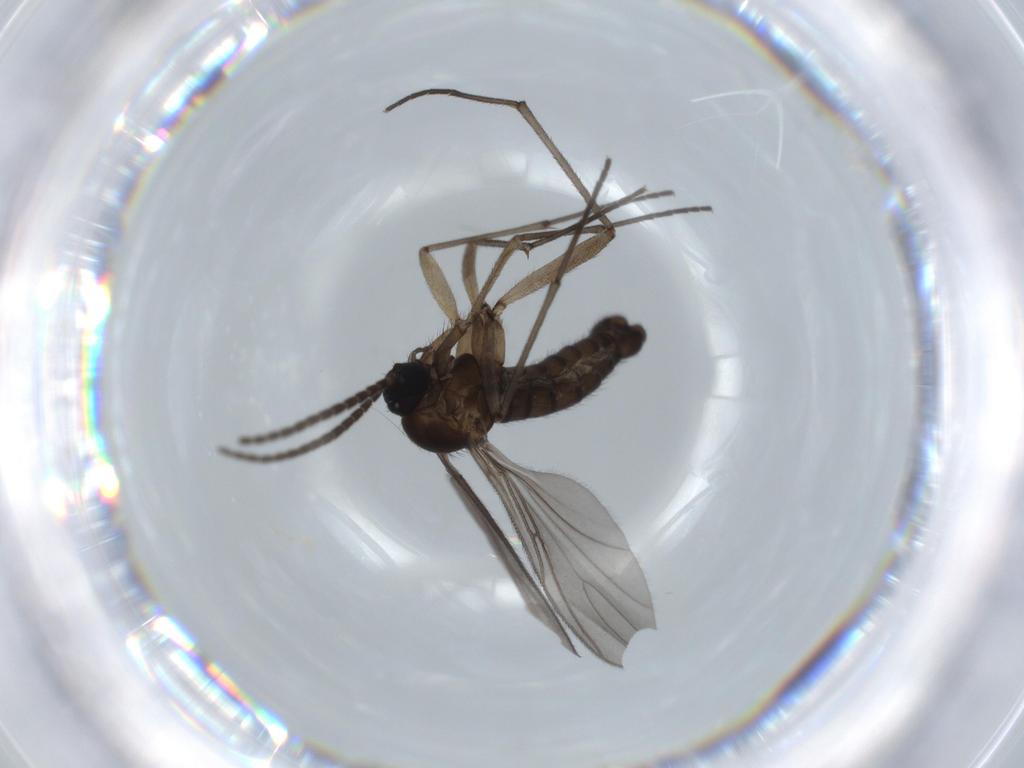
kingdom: Animalia
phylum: Arthropoda
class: Insecta
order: Diptera
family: Sciaridae
